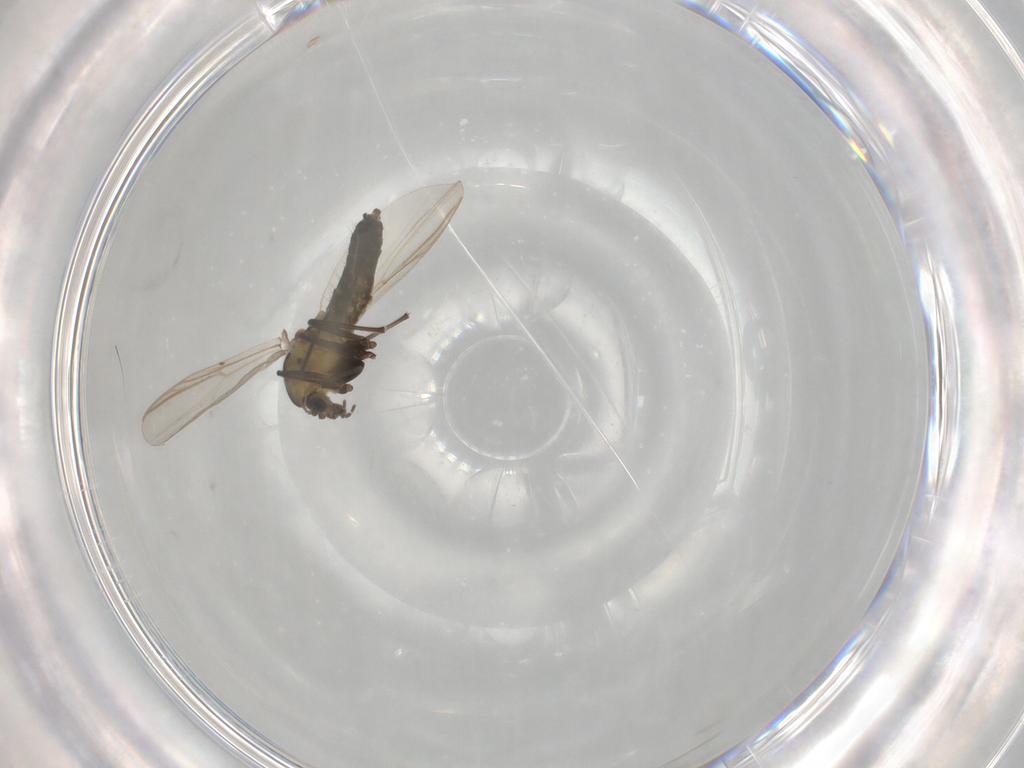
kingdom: Animalia
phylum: Arthropoda
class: Insecta
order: Diptera
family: Chironomidae
